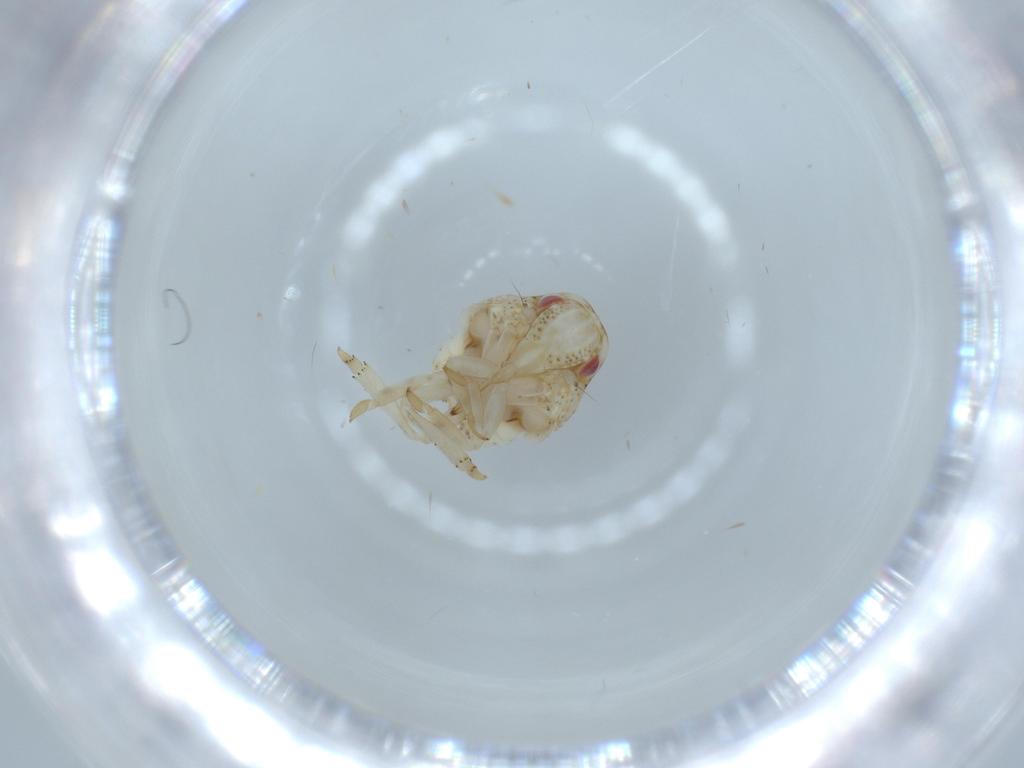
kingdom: Animalia
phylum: Arthropoda
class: Insecta
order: Hemiptera
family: Acanaloniidae
